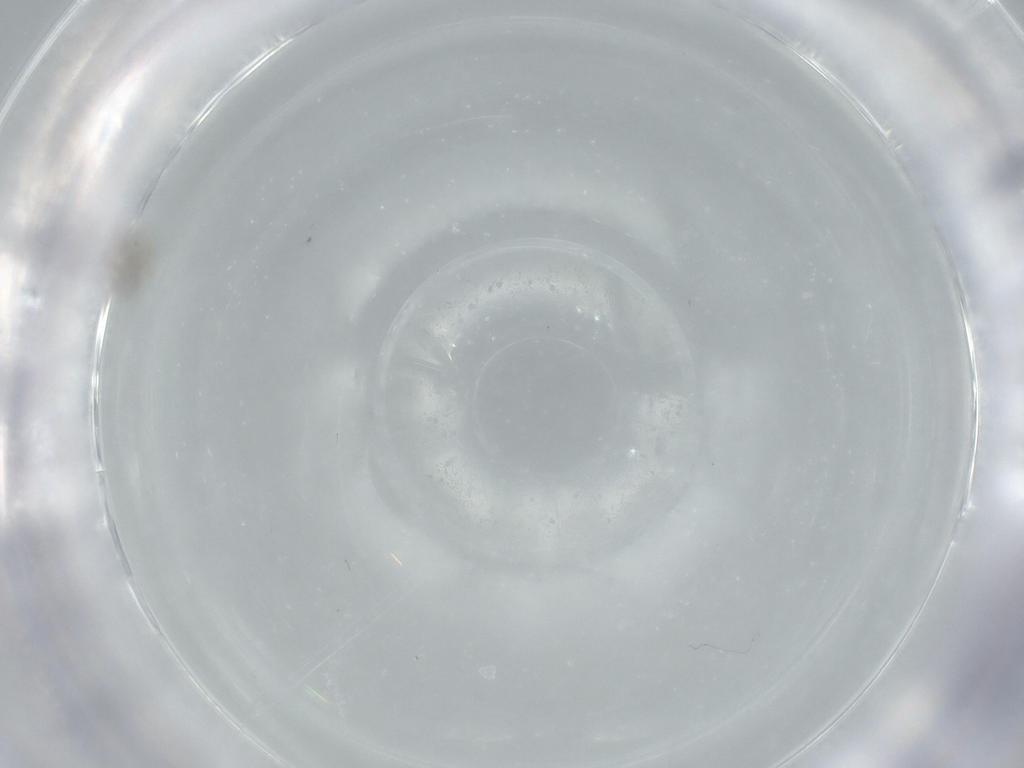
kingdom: Animalia
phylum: Arthropoda
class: Insecta
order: Diptera
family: Sciaridae
